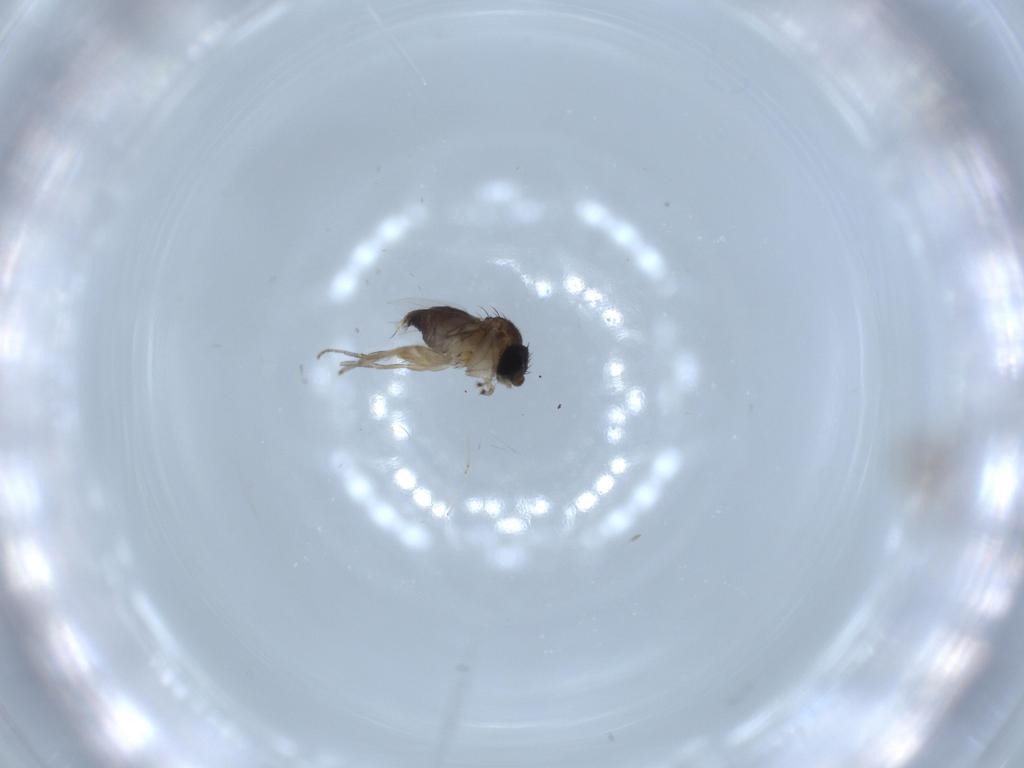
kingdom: Animalia
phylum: Arthropoda
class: Insecta
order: Diptera
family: Phoridae
